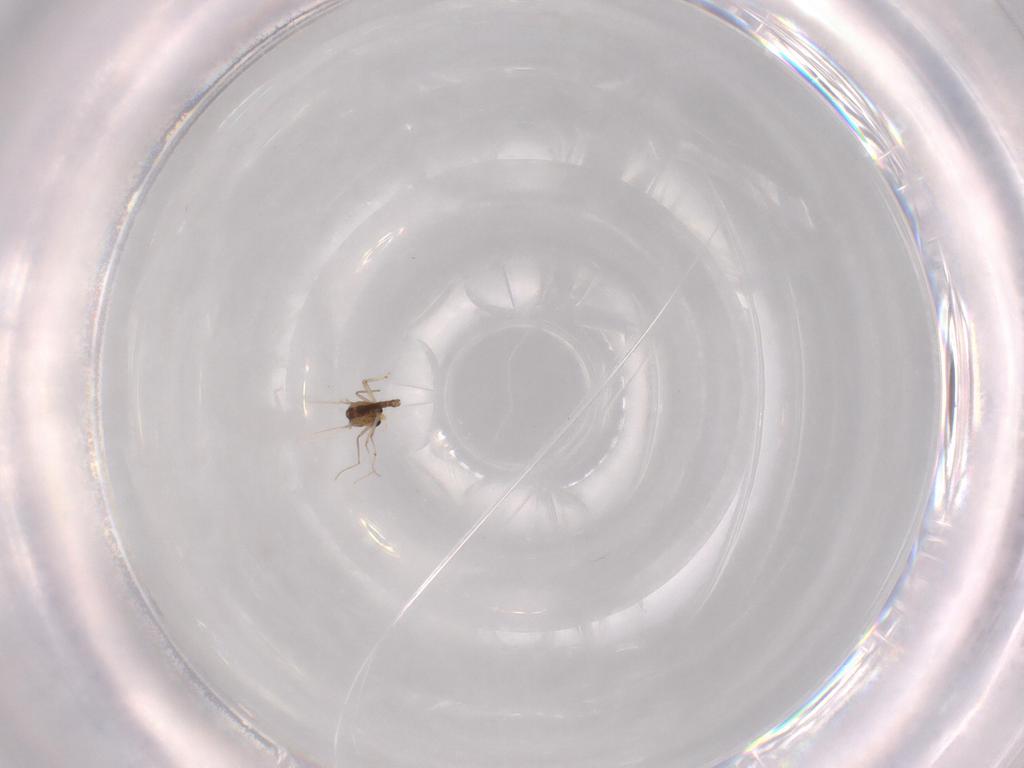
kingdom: Animalia
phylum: Arthropoda
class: Insecta
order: Diptera
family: Chironomidae
